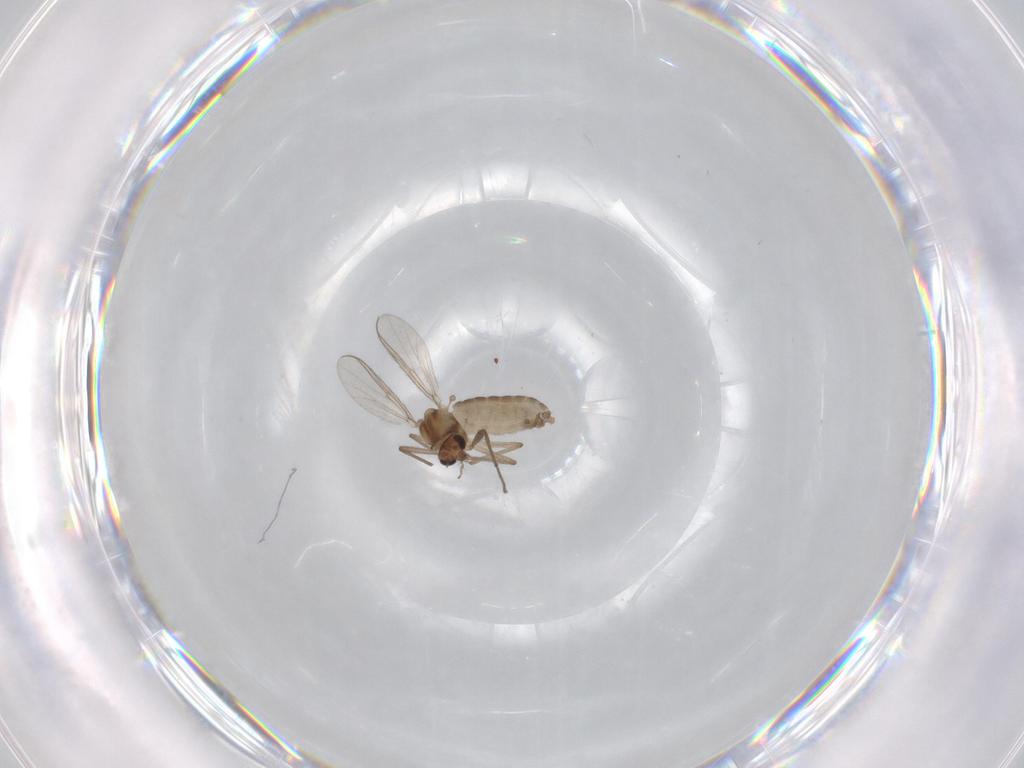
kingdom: Animalia
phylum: Arthropoda
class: Insecta
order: Diptera
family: Chironomidae
